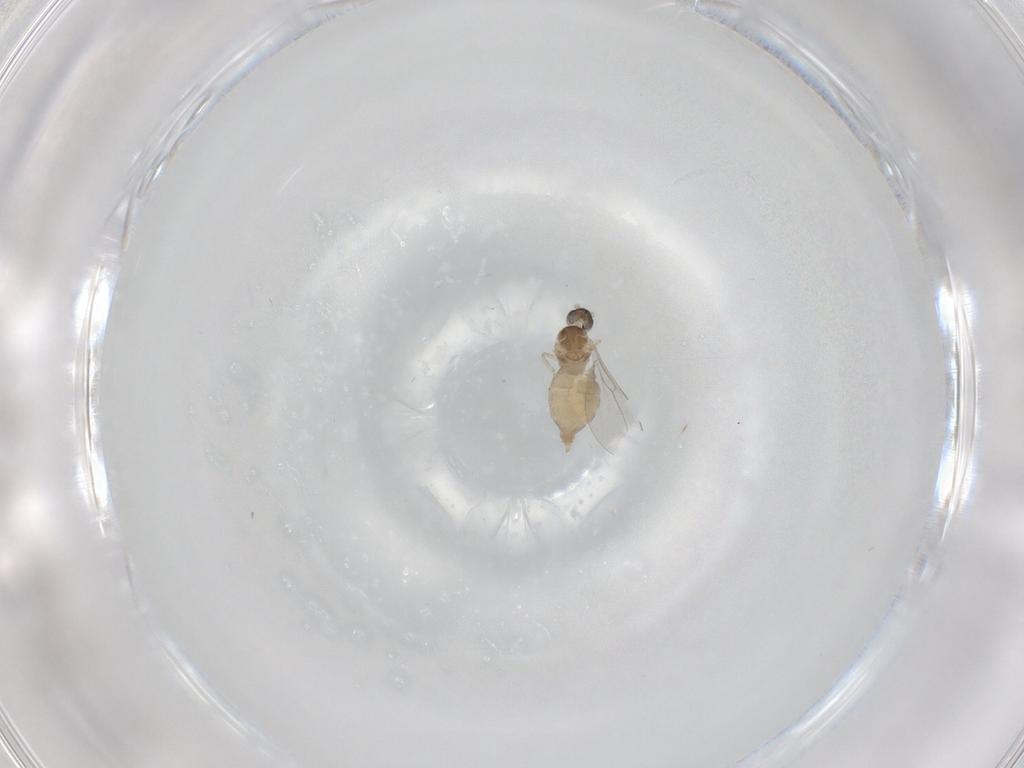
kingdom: Animalia
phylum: Arthropoda
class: Insecta
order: Diptera
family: Cecidomyiidae
